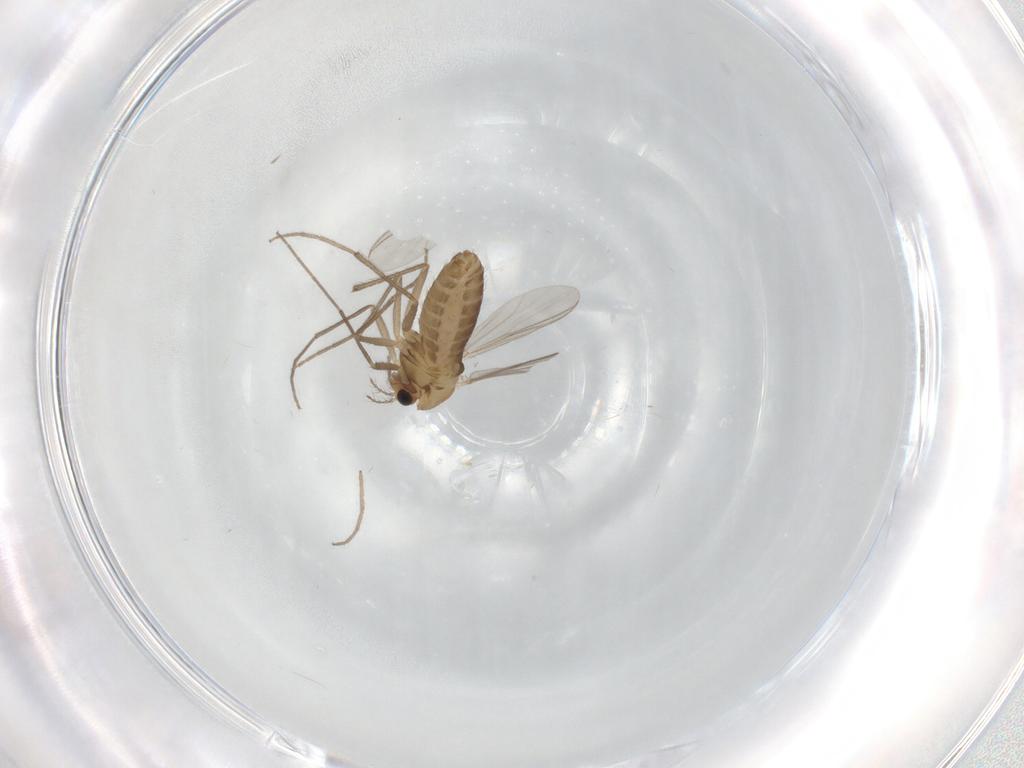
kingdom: Animalia
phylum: Arthropoda
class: Insecta
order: Diptera
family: Chironomidae
